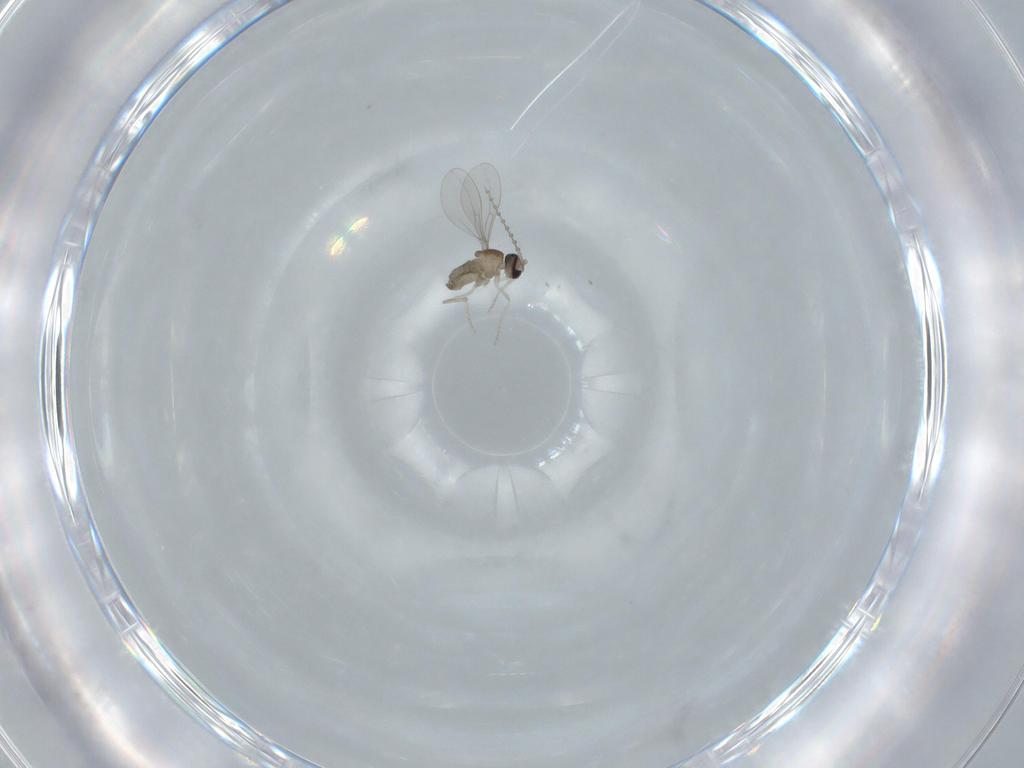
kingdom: Animalia
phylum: Arthropoda
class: Insecta
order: Diptera
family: Cecidomyiidae
